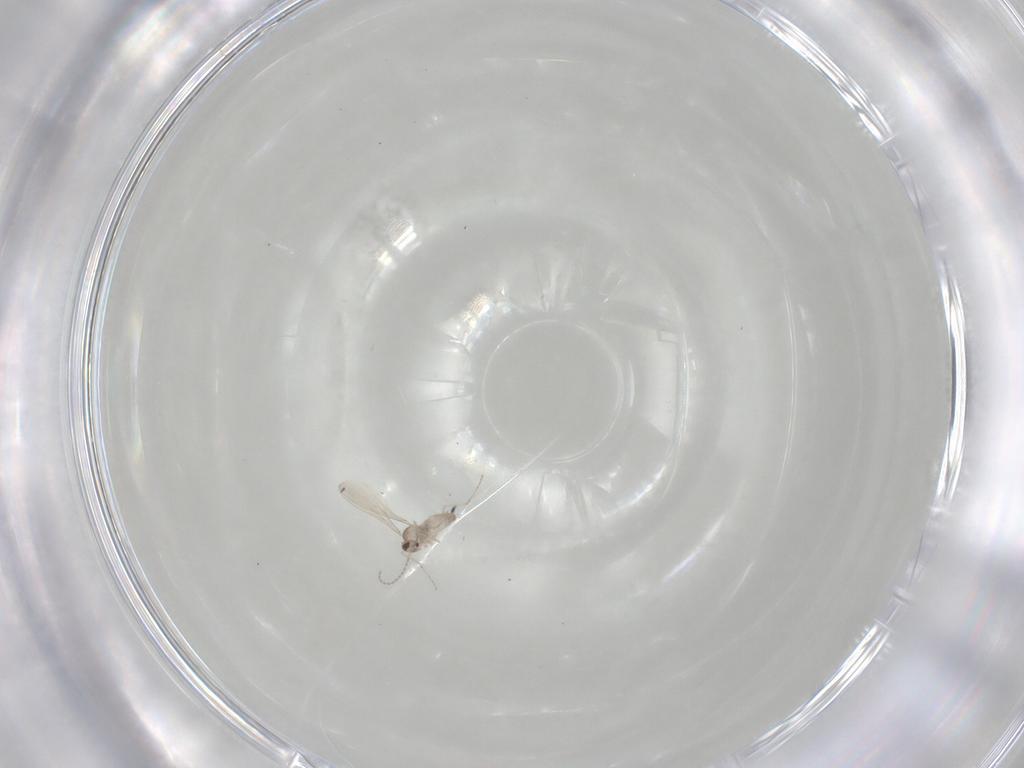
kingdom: Animalia
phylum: Arthropoda
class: Insecta
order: Diptera
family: Cecidomyiidae
